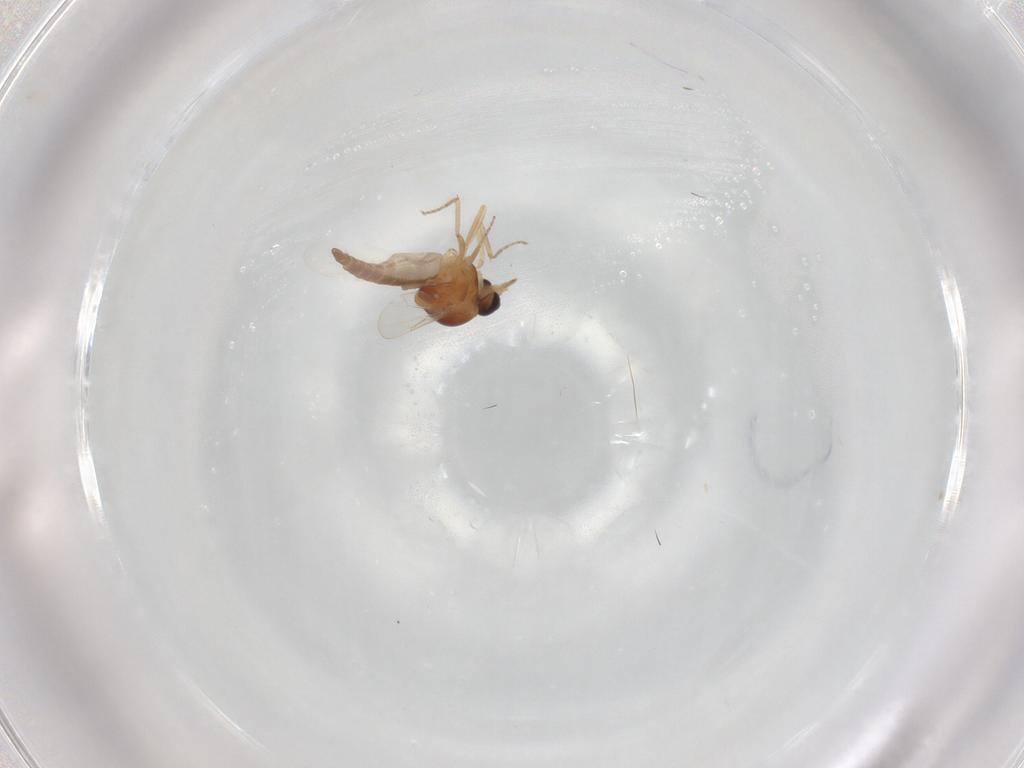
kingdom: Animalia
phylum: Arthropoda
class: Insecta
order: Diptera
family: Ceratopogonidae
